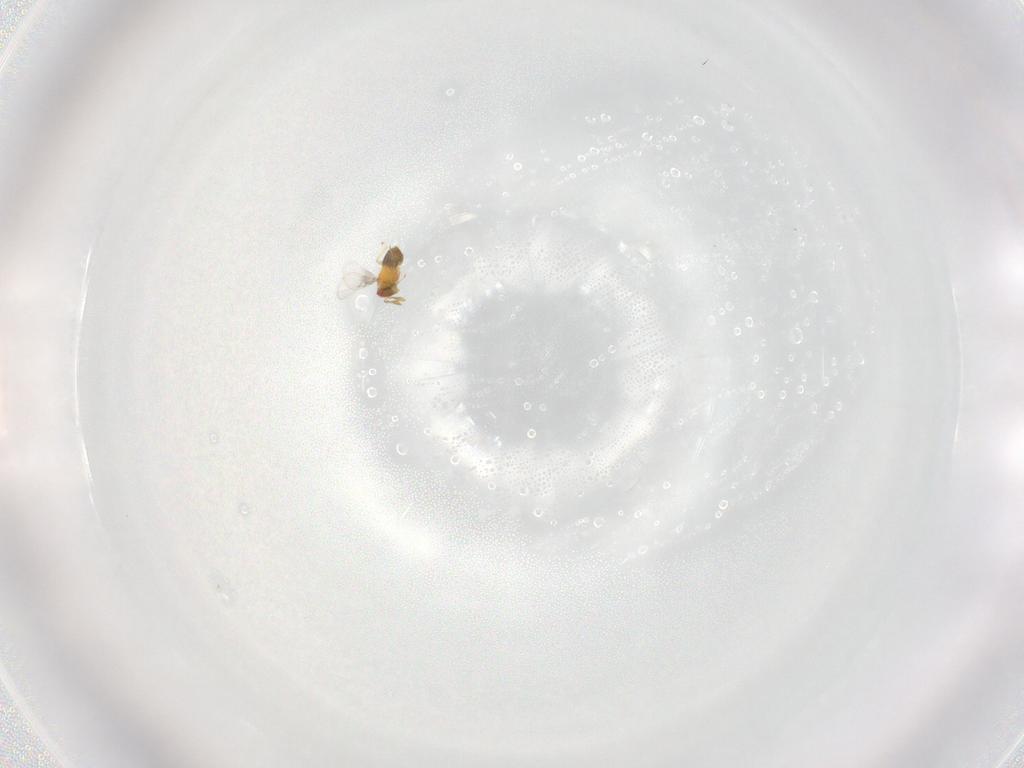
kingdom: Animalia
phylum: Arthropoda
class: Insecta
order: Hymenoptera
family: Trichogrammatidae
